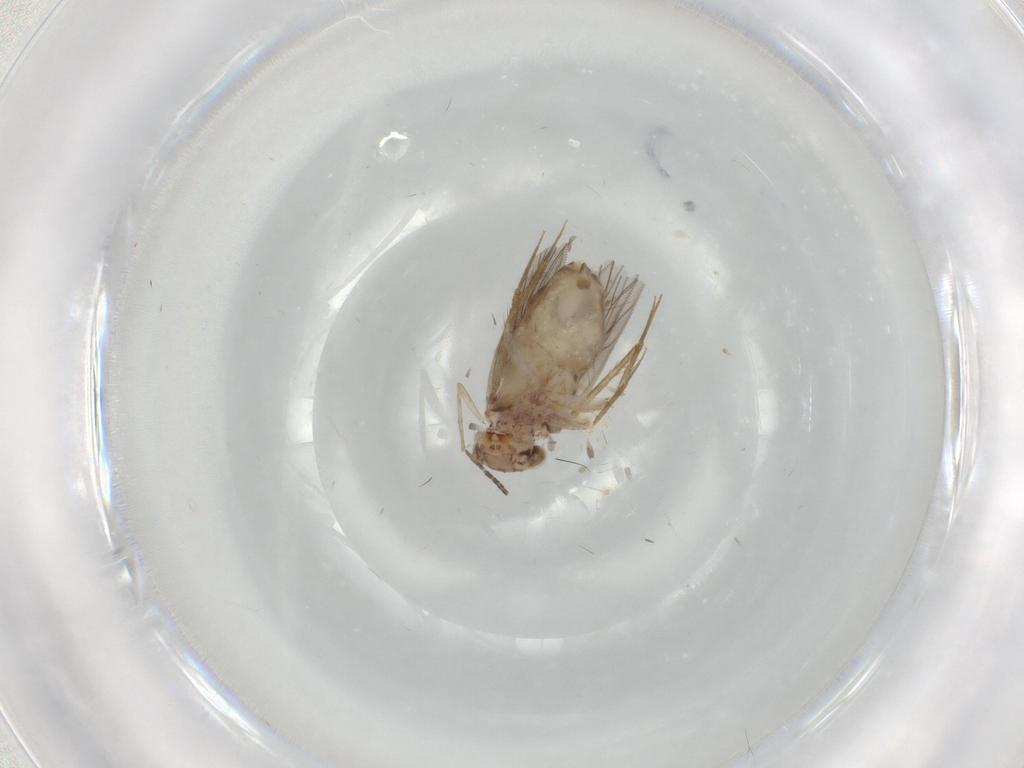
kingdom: Animalia
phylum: Arthropoda
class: Insecta
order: Psocodea
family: Lepidopsocidae
